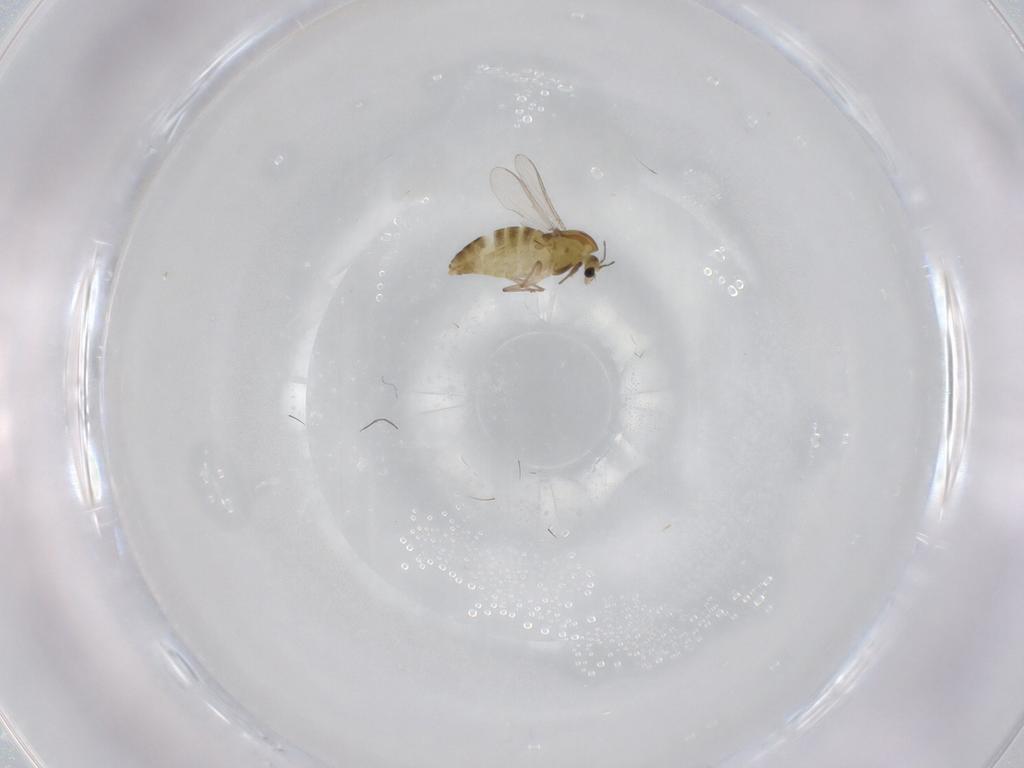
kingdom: Animalia
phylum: Arthropoda
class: Insecta
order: Diptera
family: Chironomidae
